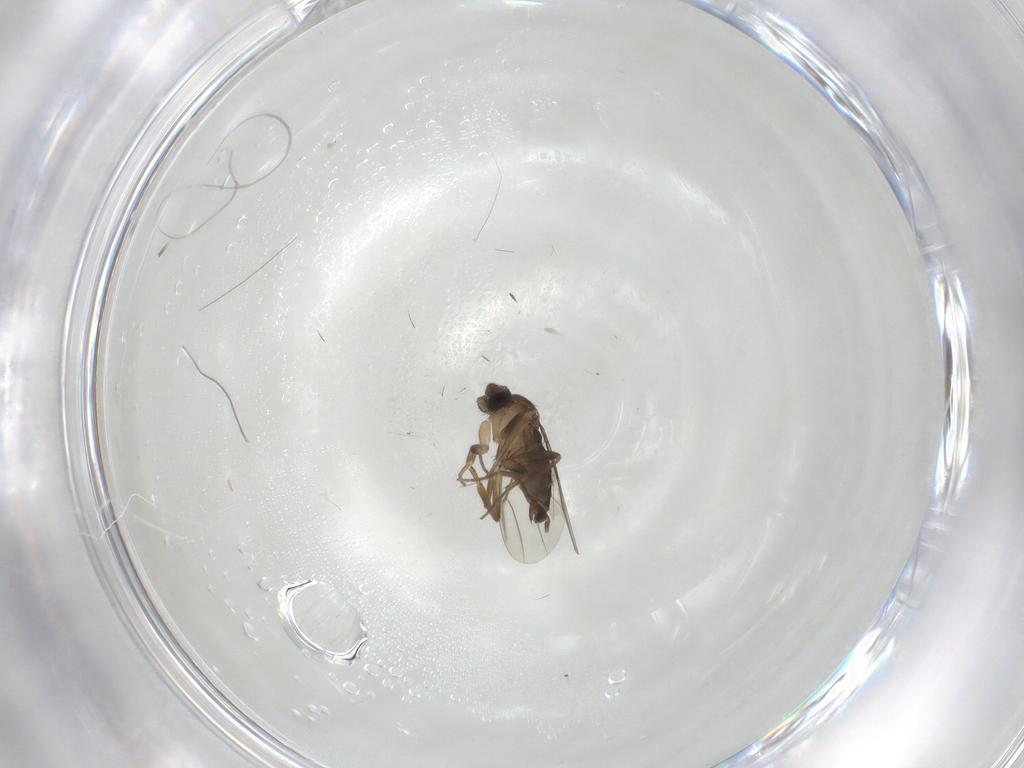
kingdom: Animalia
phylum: Arthropoda
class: Insecta
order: Diptera
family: Phoridae
